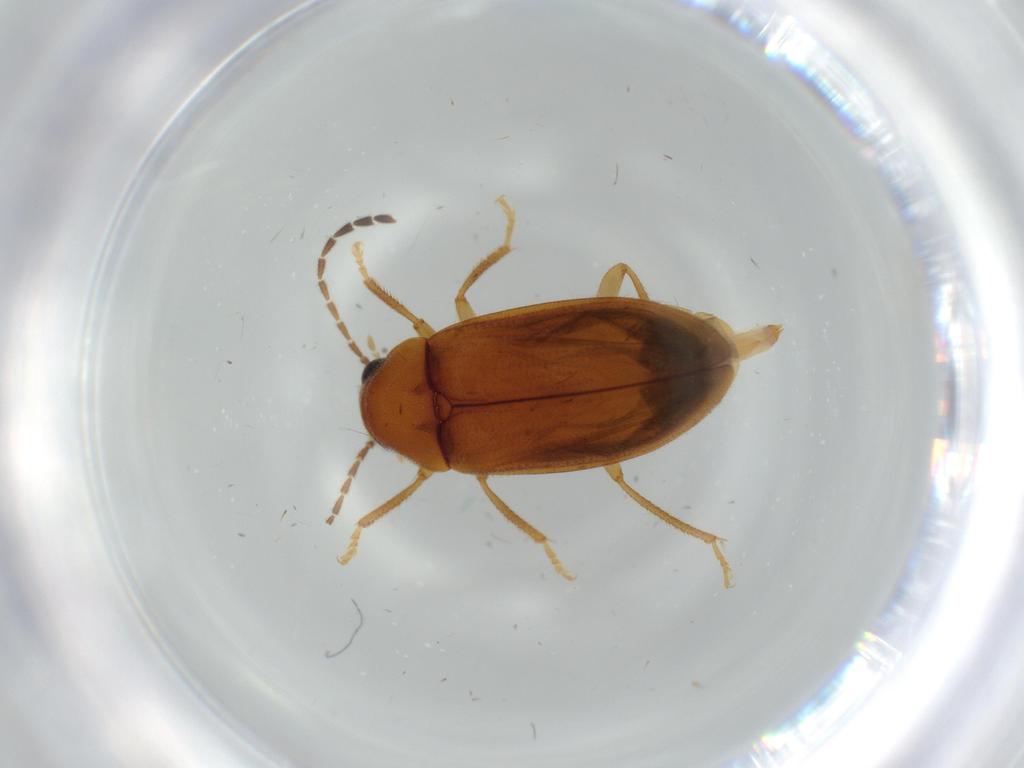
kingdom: Animalia
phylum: Arthropoda
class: Insecta
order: Coleoptera
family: Ptilodactylidae
